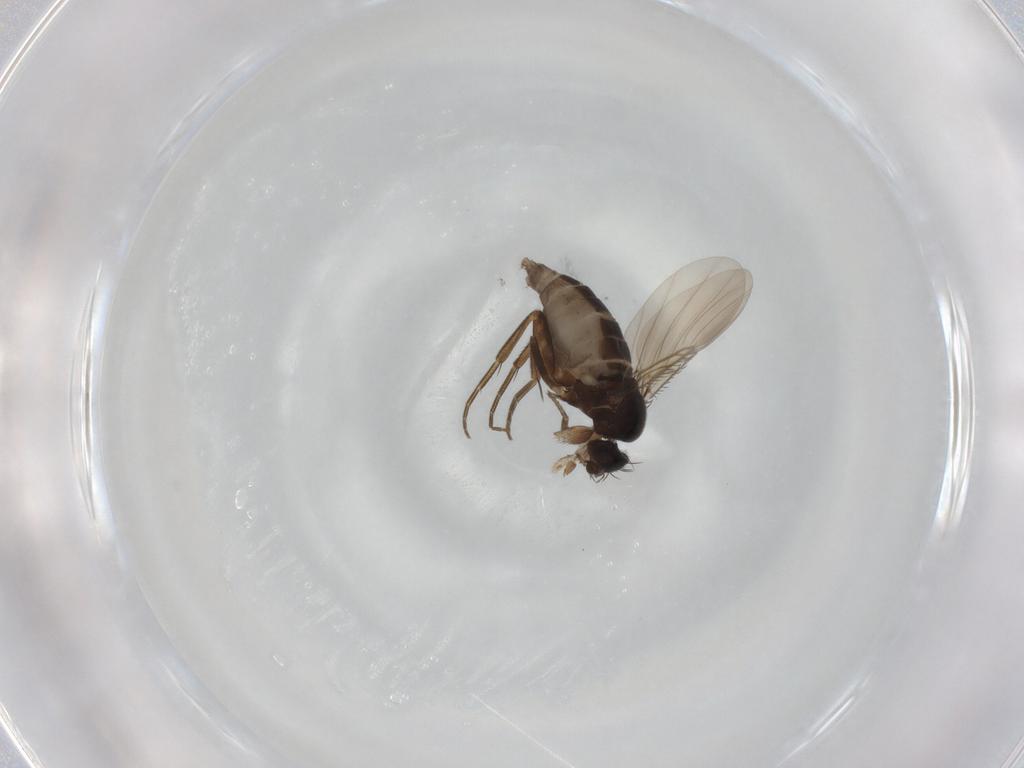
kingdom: Animalia
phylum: Arthropoda
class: Insecta
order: Diptera
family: Phoridae
